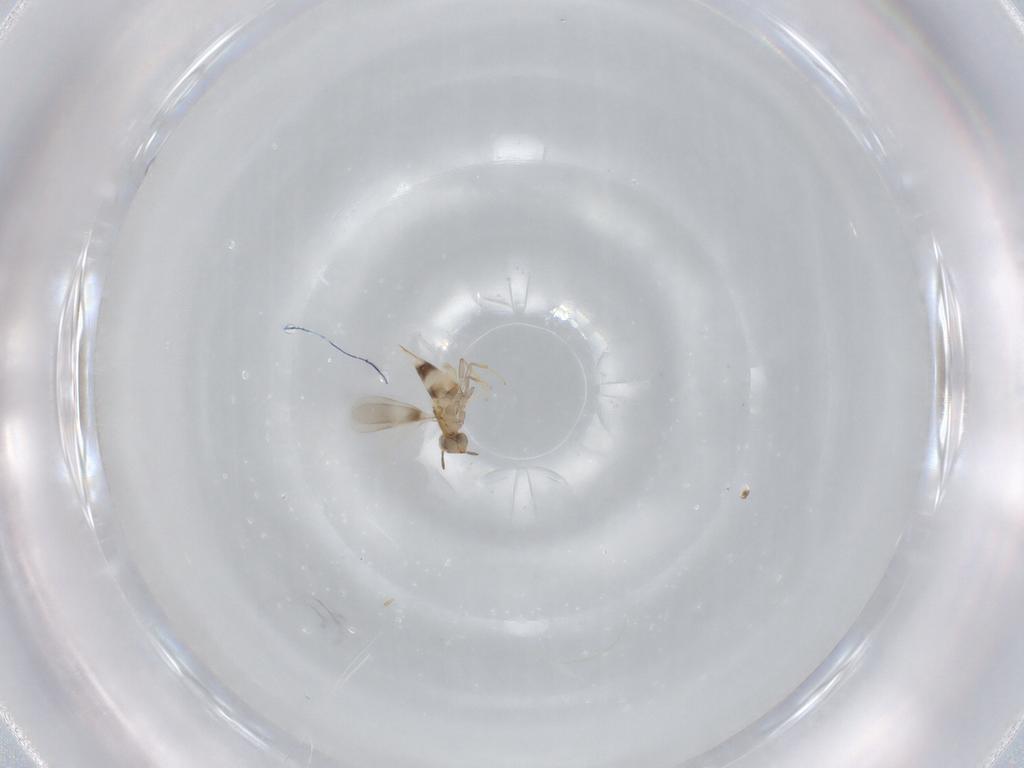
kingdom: Animalia
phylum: Arthropoda
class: Insecta
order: Hymenoptera
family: Aphelinidae
